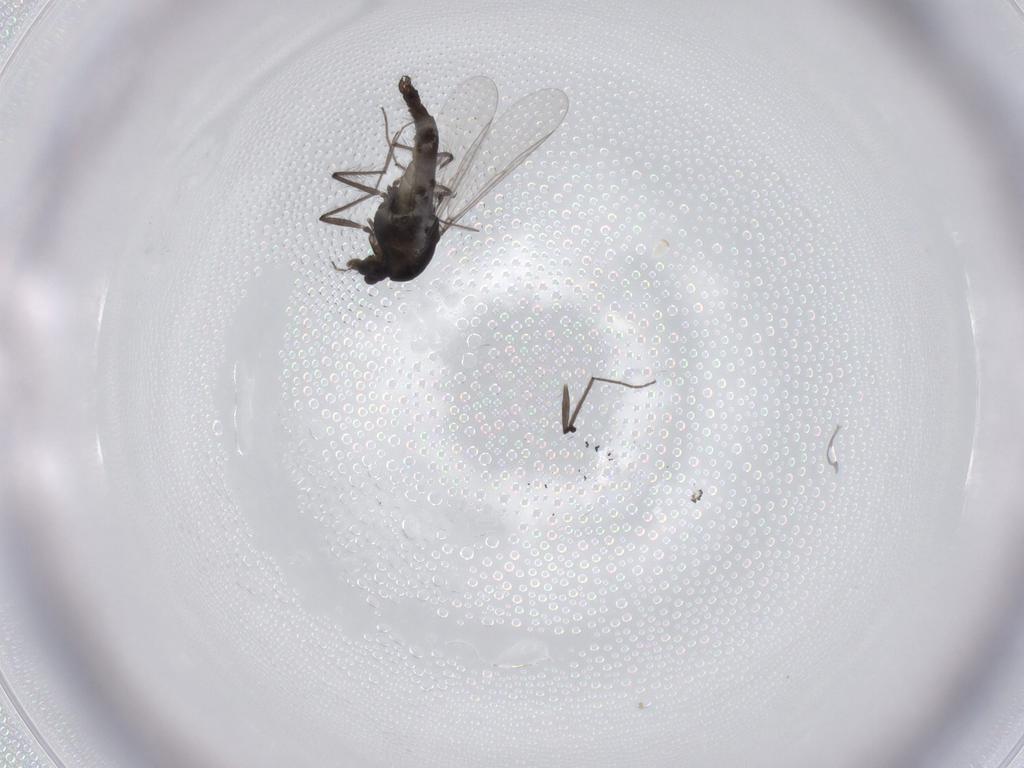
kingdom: Animalia
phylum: Arthropoda
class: Insecta
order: Diptera
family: Chironomidae
